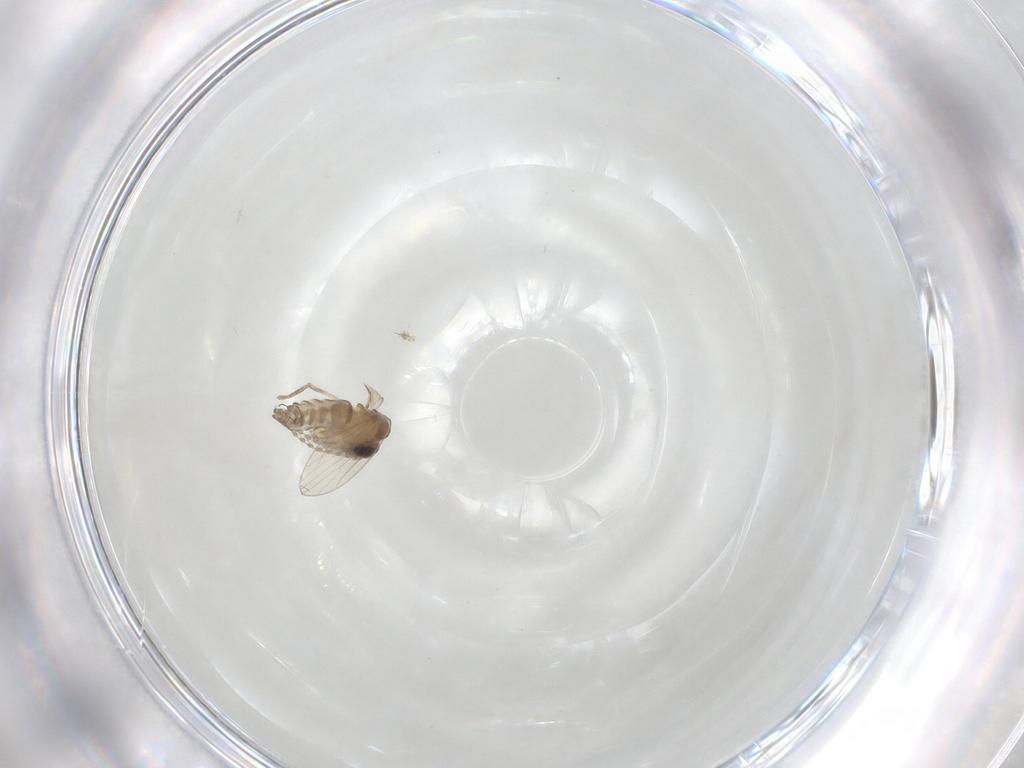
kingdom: Animalia
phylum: Arthropoda
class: Insecta
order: Diptera
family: Psychodidae
